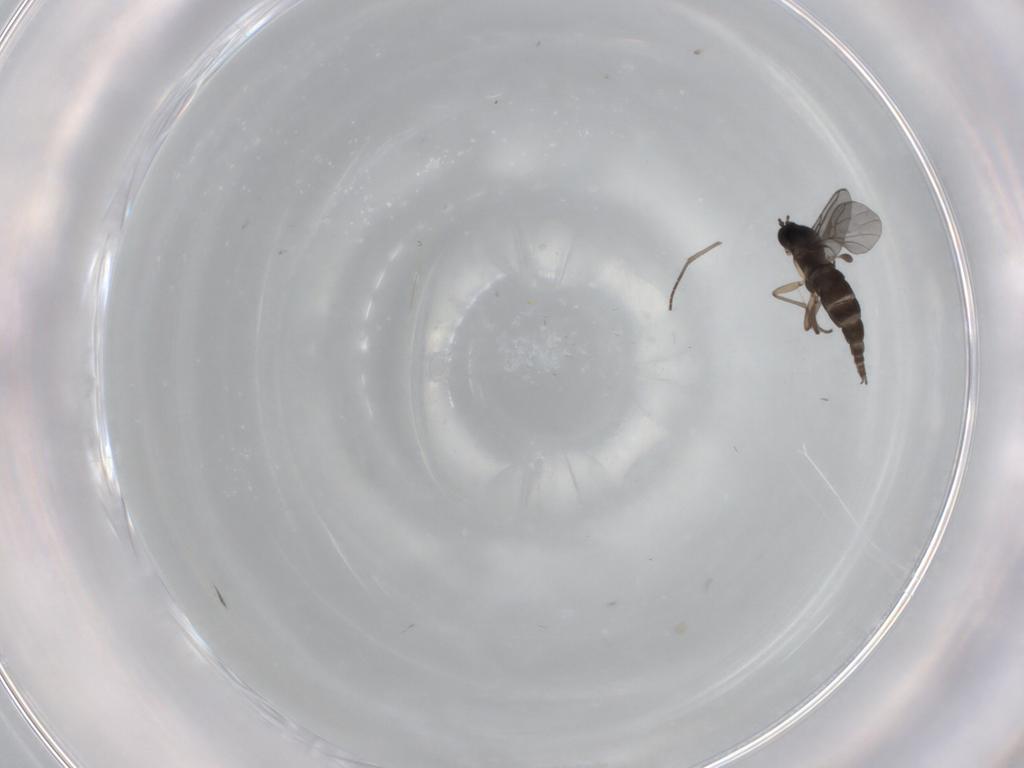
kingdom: Animalia
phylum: Arthropoda
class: Insecta
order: Diptera
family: Sciaridae
